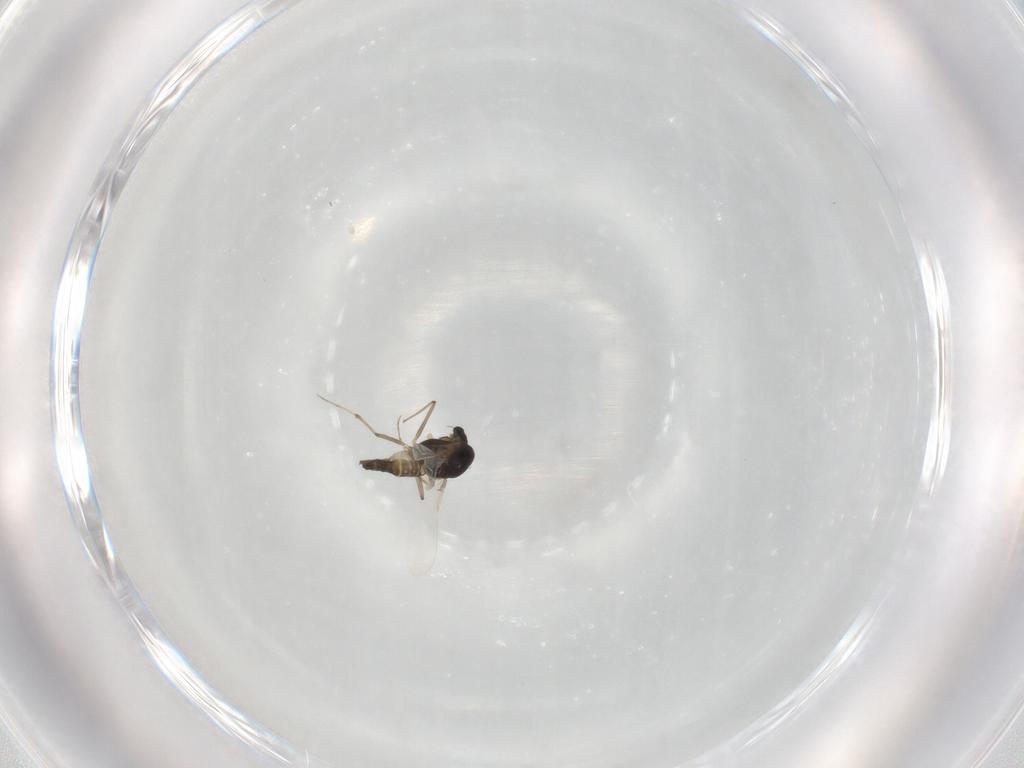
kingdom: Animalia
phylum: Arthropoda
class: Insecta
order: Diptera
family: Chironomidae
